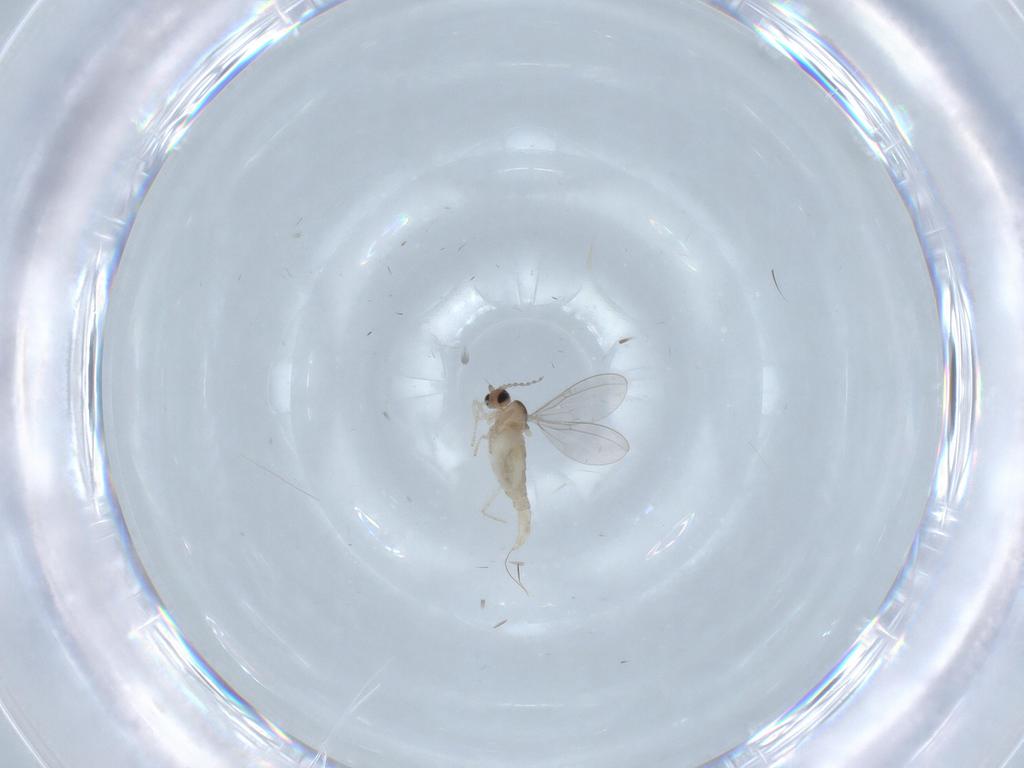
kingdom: Animalia
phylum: Arthropoda
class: Insecta
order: Diptera
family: Cecidomyiidae
